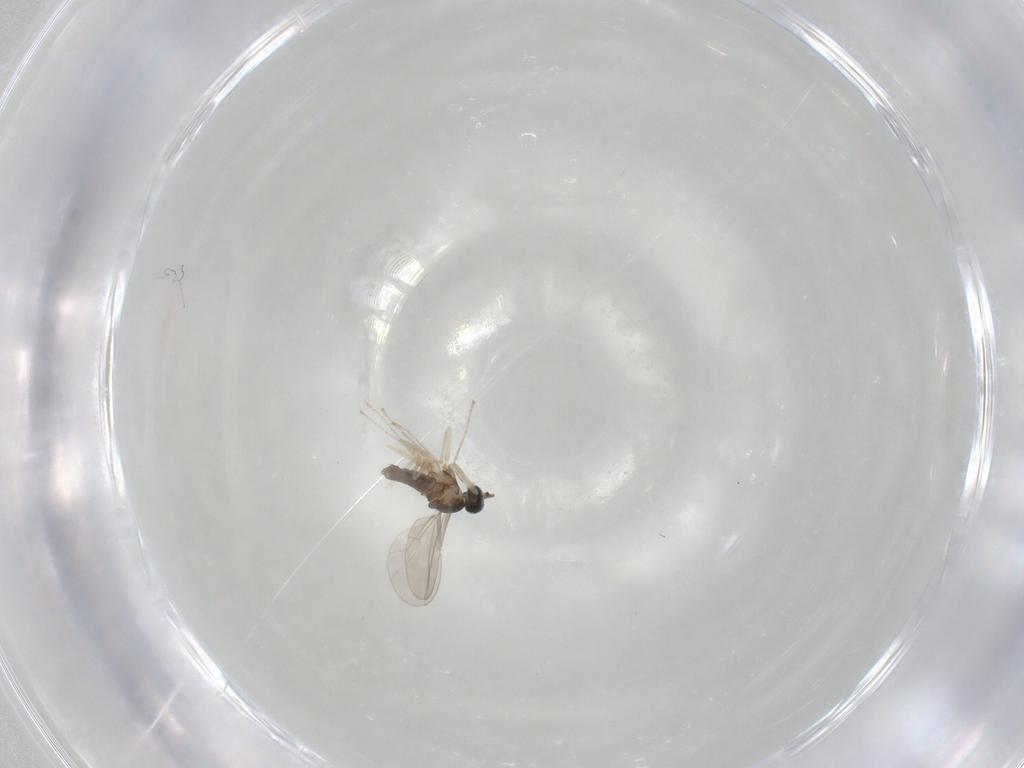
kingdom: Animalia
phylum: Arthropoda
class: Insecta
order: Diptera
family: Cecidomyiidae
